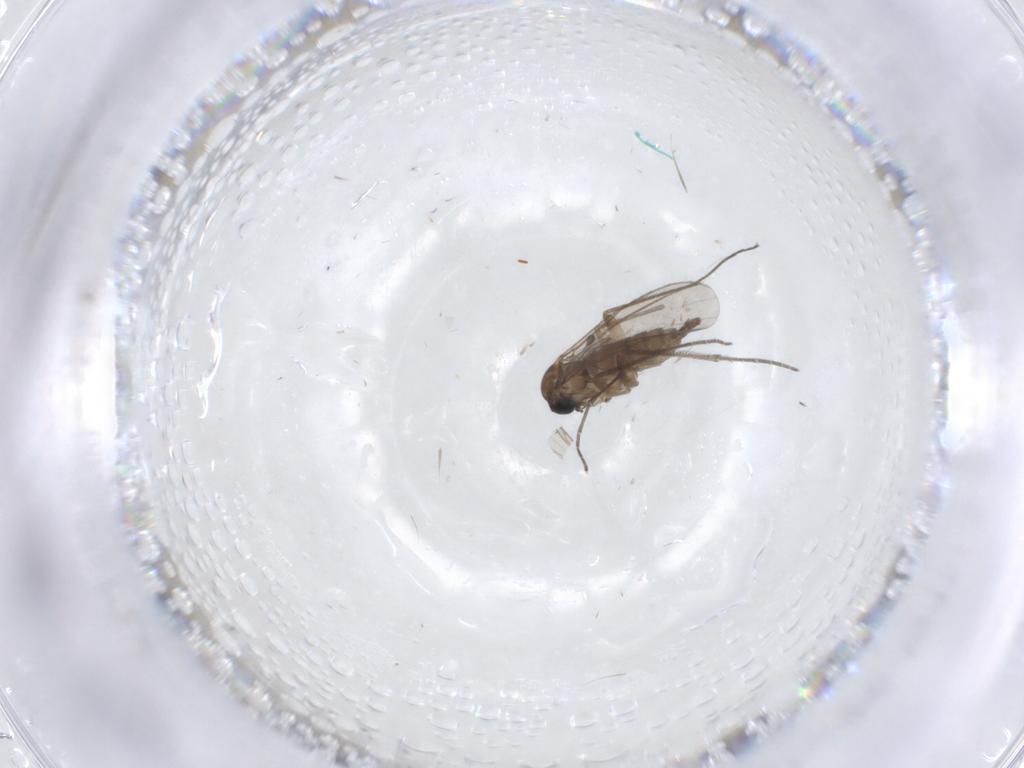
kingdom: Animalia
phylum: Arthropoda
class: Insecta
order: Diptera
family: Sciaridae
